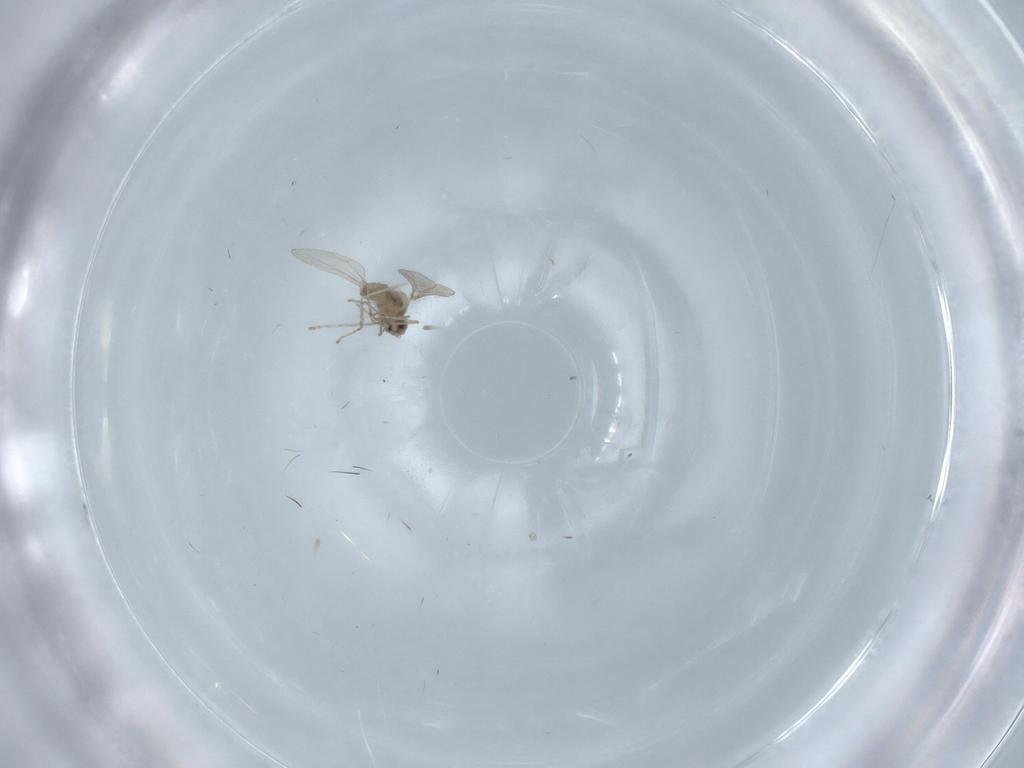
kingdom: Animalia
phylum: Arthropoda
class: Insecta
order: Diptera
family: Cecidomyiidae
